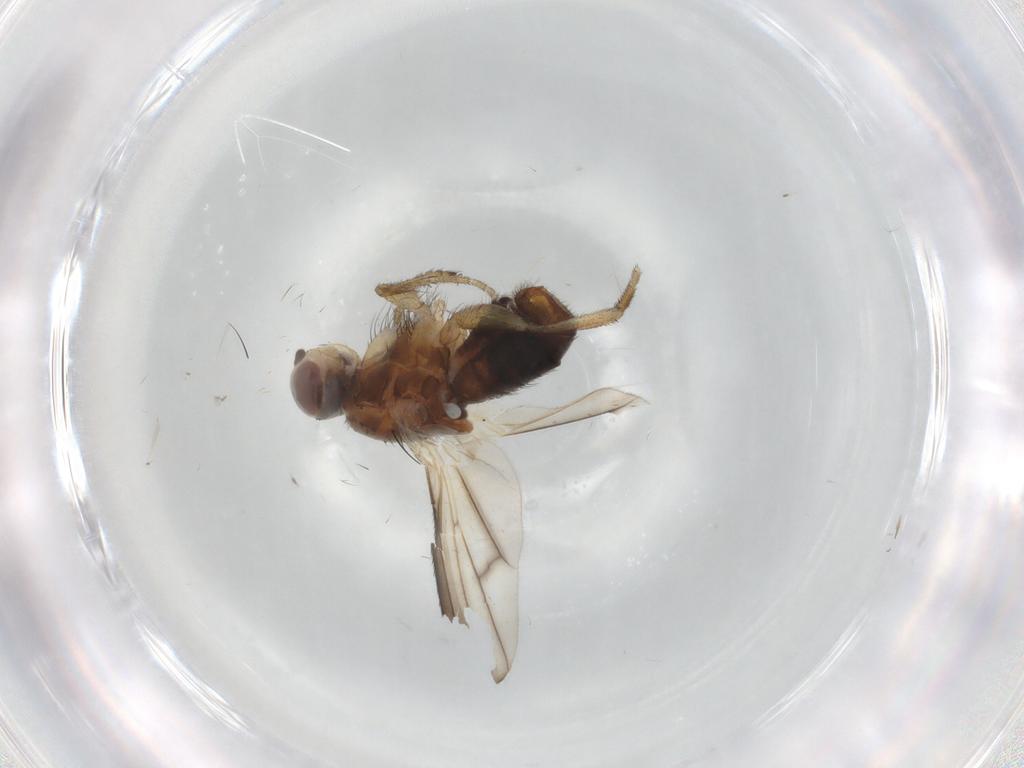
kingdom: Animalia
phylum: Arthropoda
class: Insecta
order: Diptera
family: Heleomyzidae
